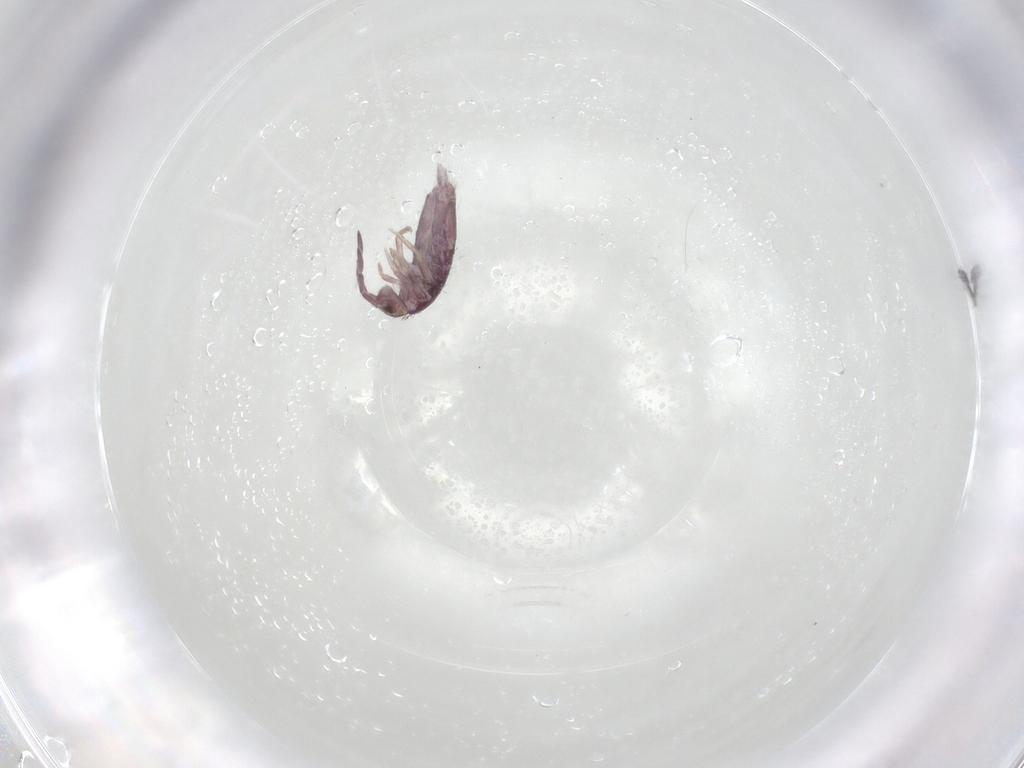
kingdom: Animalia
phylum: Arthropoda
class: Collembola
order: Entomobryomorpha
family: Entomobryidae
